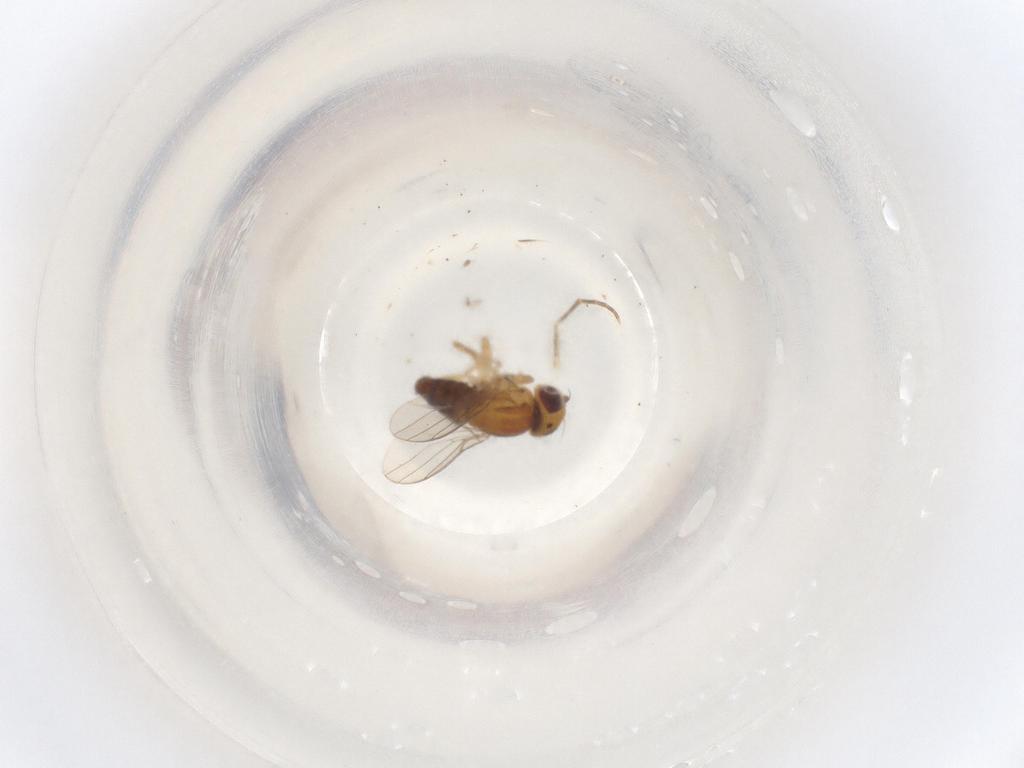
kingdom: Animalia
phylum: Arthropoda
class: Insecta
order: Diptera
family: Chloropidae
